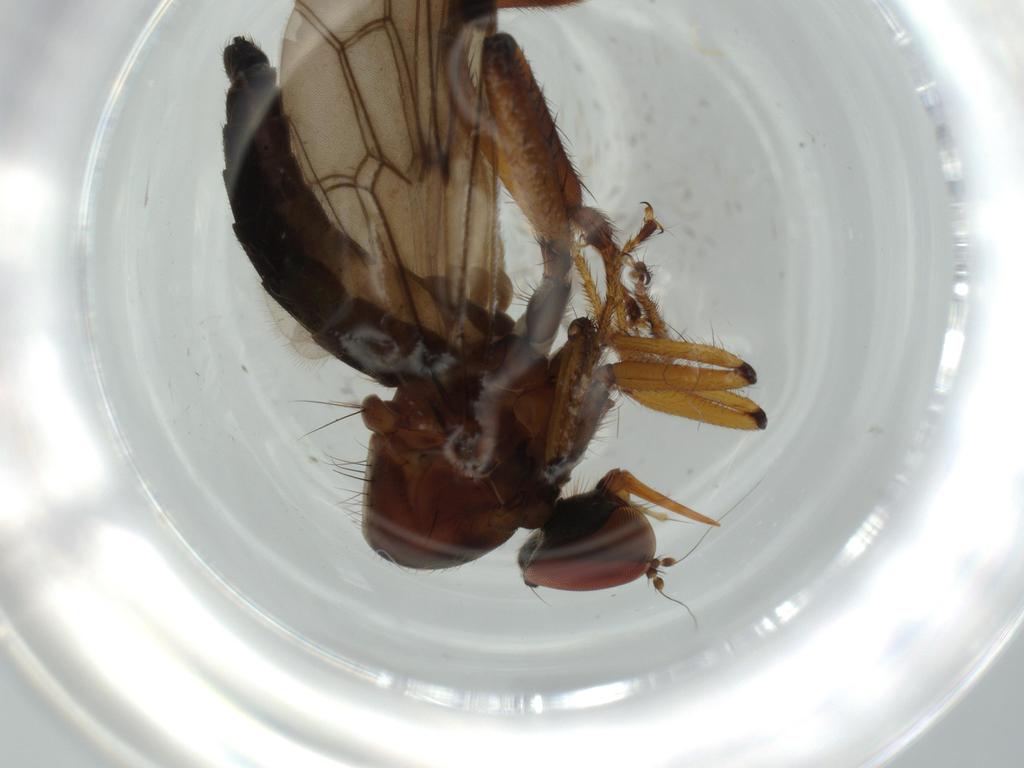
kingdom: Animalia
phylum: Arthropoda
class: Insecta
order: Diptera
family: Hybotidae
